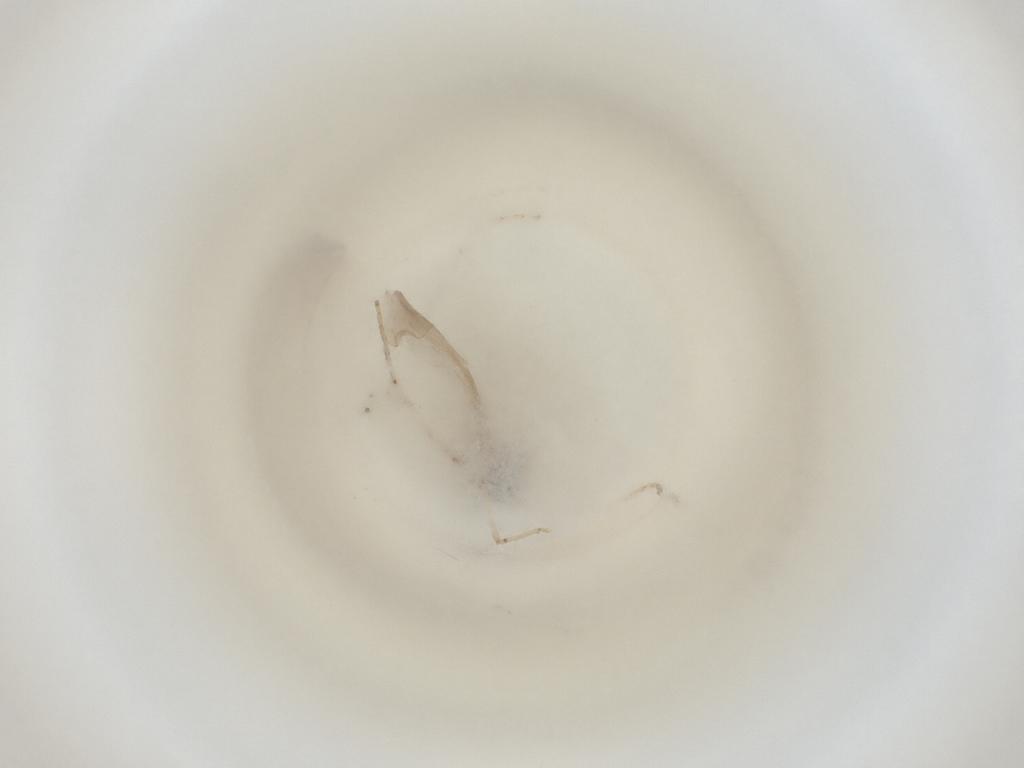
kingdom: Animalia
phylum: Arthropoda
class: Insecta
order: Diptera
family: Cecidomyiidae
